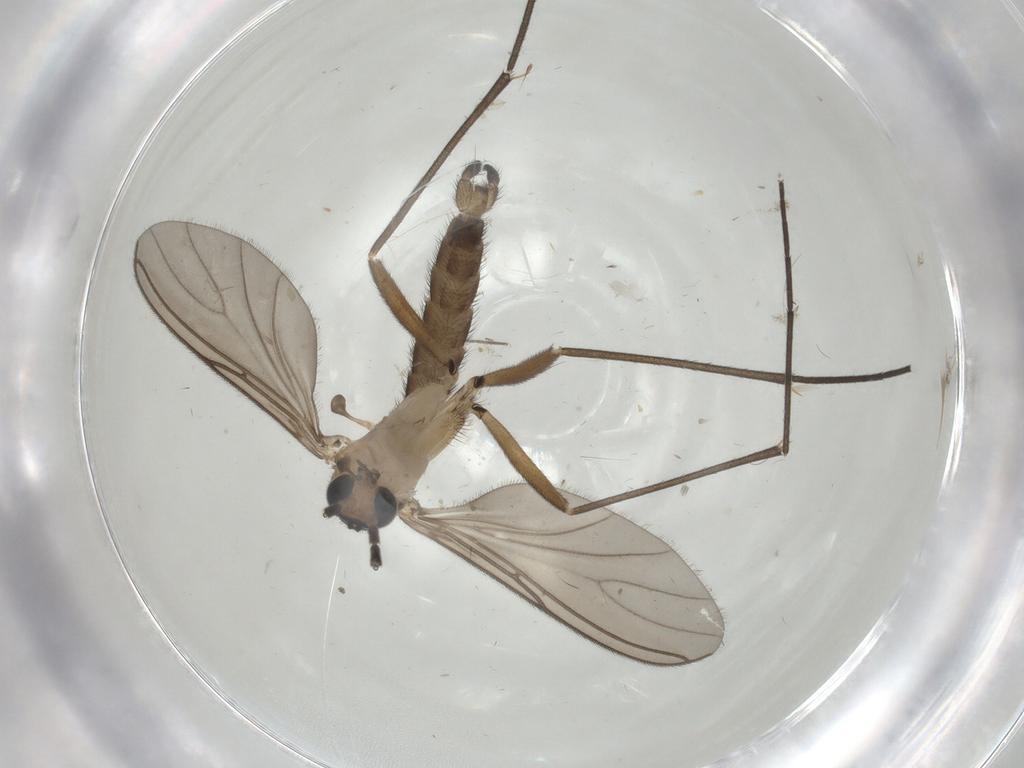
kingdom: Animalia
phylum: Arthropoda
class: Insecta
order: Diptera
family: Sciaridae
